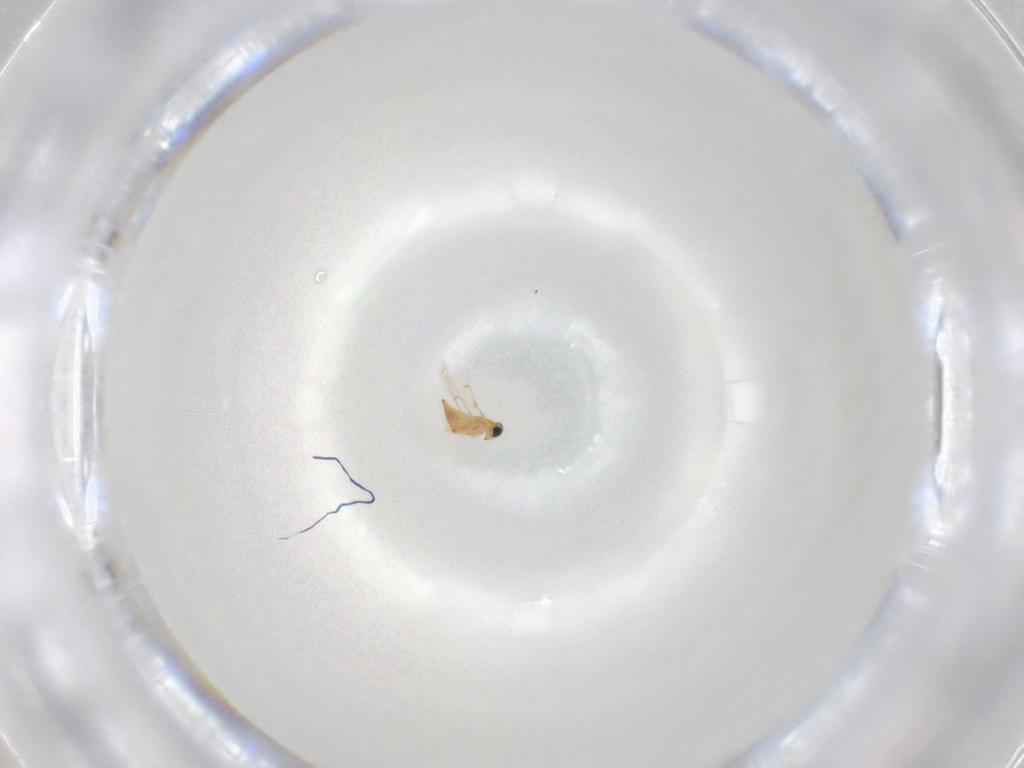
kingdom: Animalia
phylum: Arthropoda
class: Insecta
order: Hymenoptera
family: Trichogrammatidae
